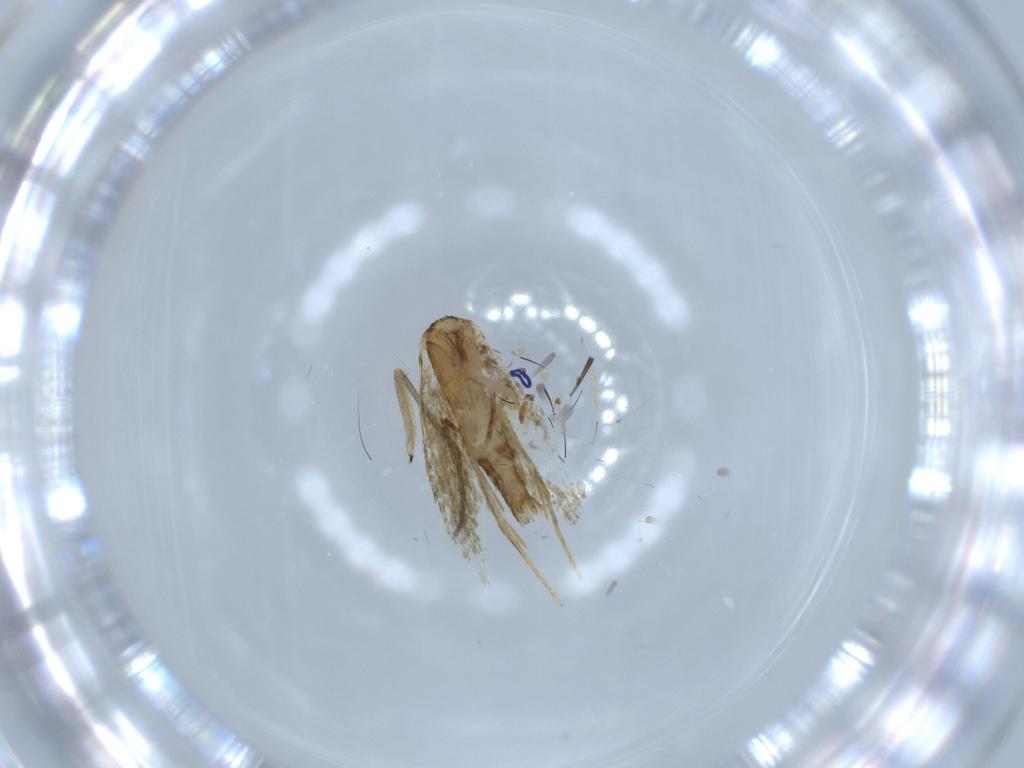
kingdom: Animalia
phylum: Arthropoda
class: Insecta
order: Lepidoptera
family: Tineidae
